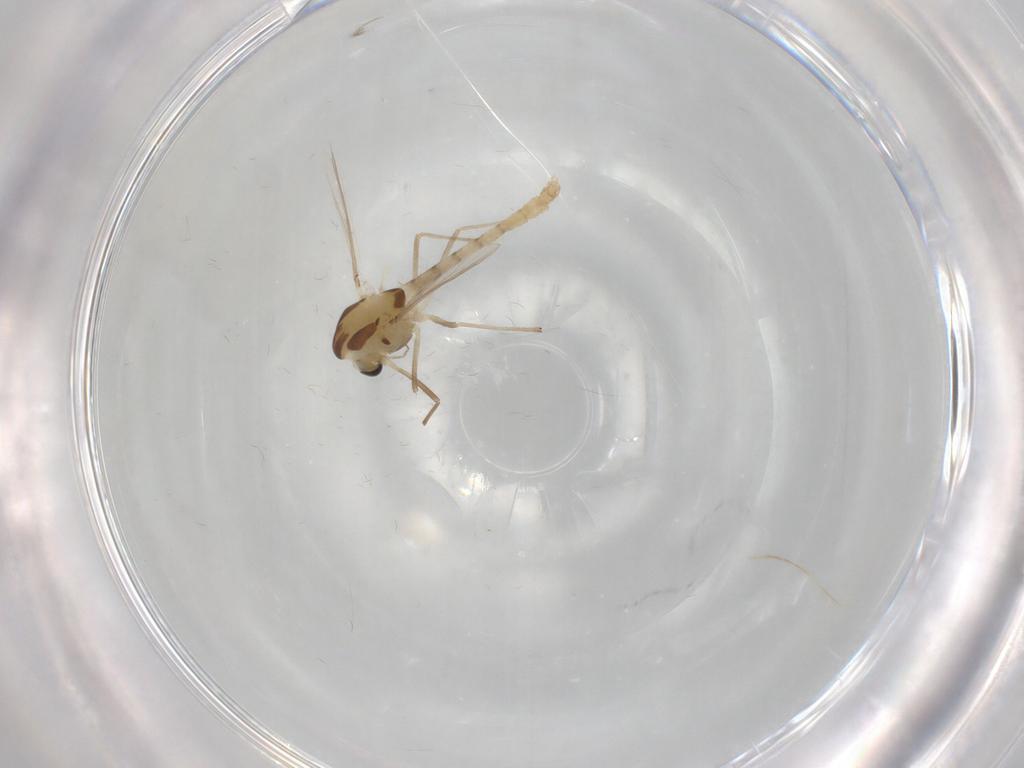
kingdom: Animalia
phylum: Arthropoda
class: Insecta
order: Diptera
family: Chironomidae
